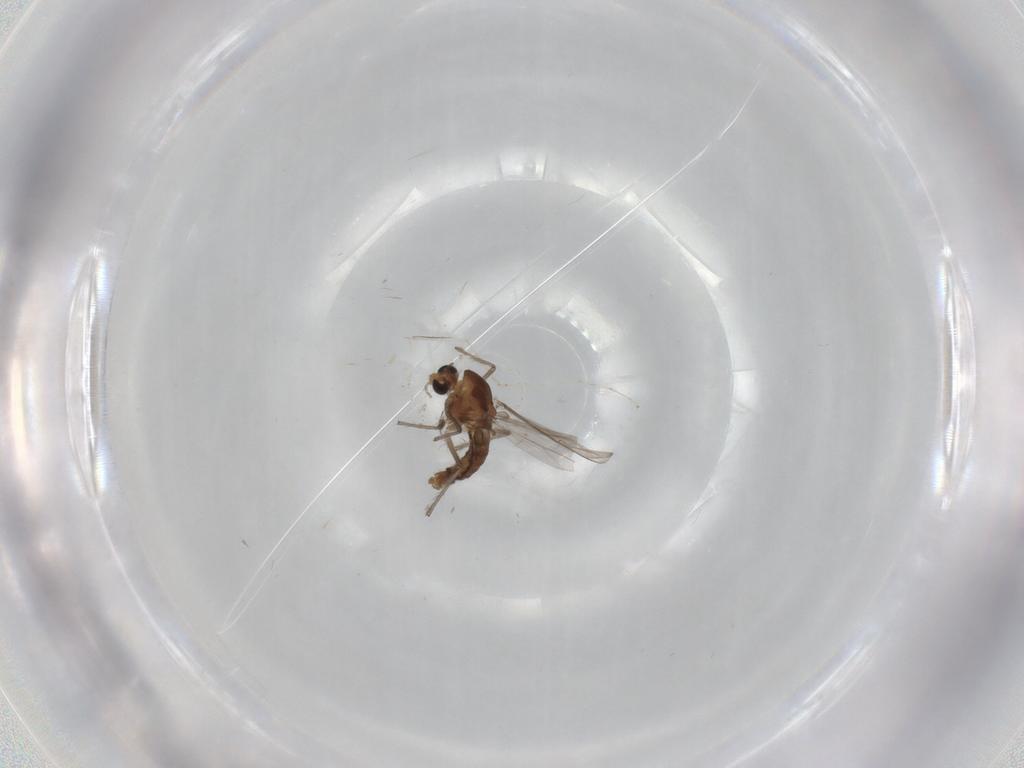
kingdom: Animalia
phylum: Arthropoda
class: Insecta
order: Diptera
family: Chironomidae
